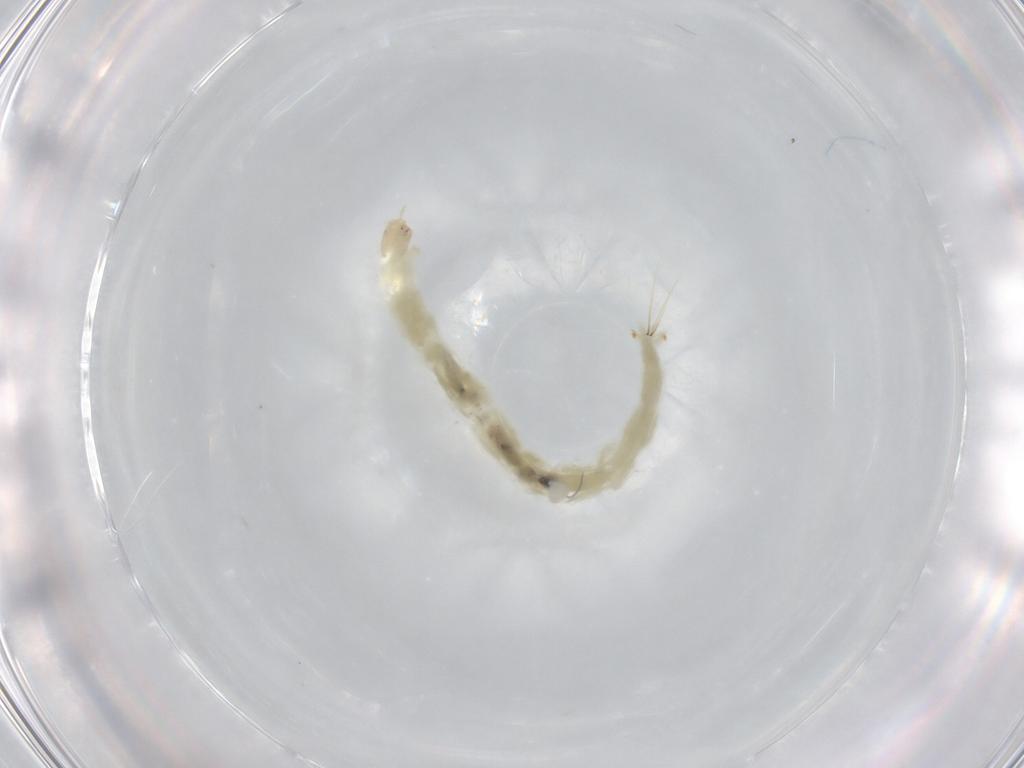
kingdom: Animalia
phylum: Arthropoda
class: Insecta
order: Diptera
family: Chironomidae
